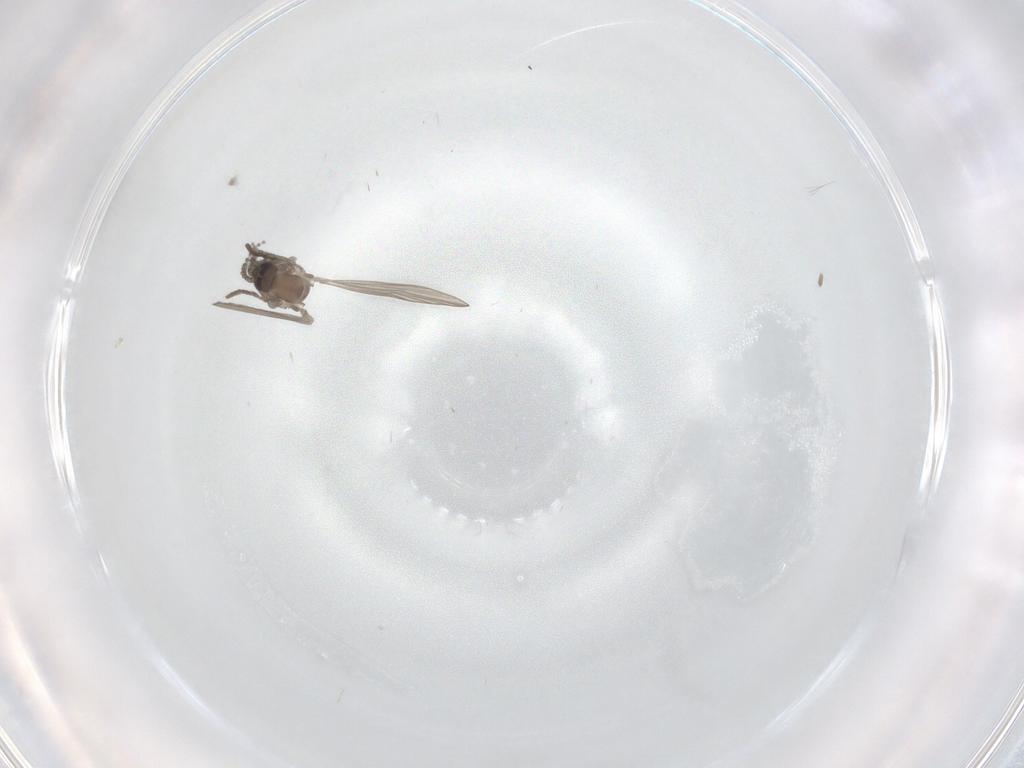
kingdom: Animalia
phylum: Arthropoda
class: Insecta
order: Diptera
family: Psychodidae
